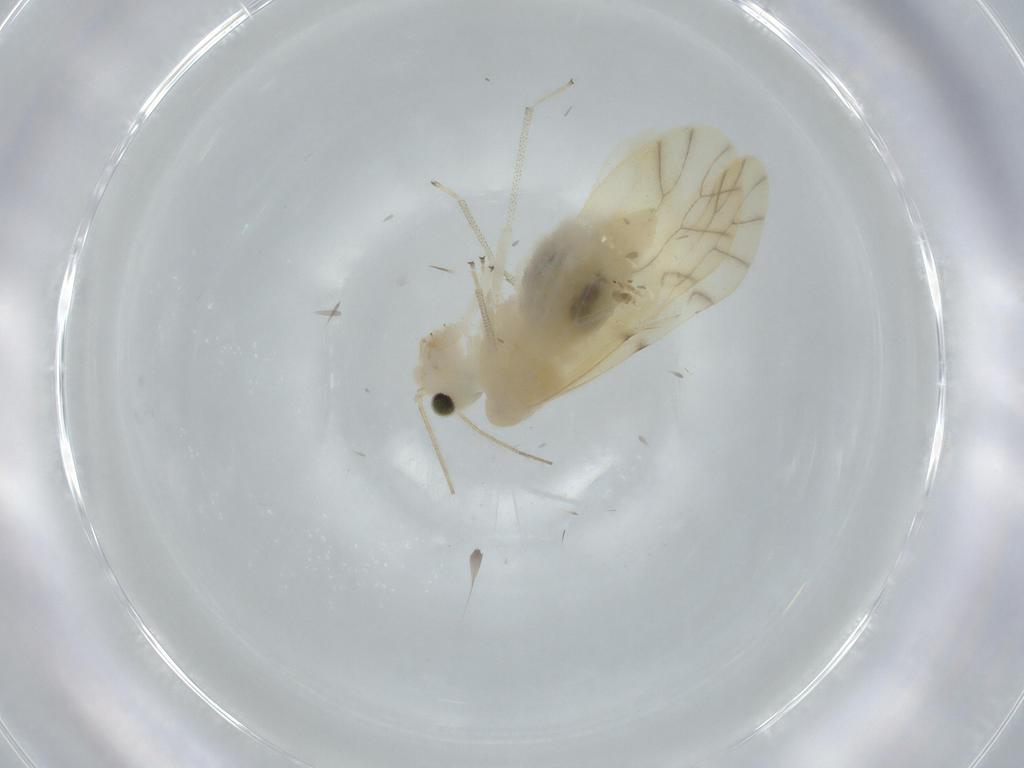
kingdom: Animalia
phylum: Arthropoda
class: Insecta
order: Psocodea
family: Caeciliusidae
